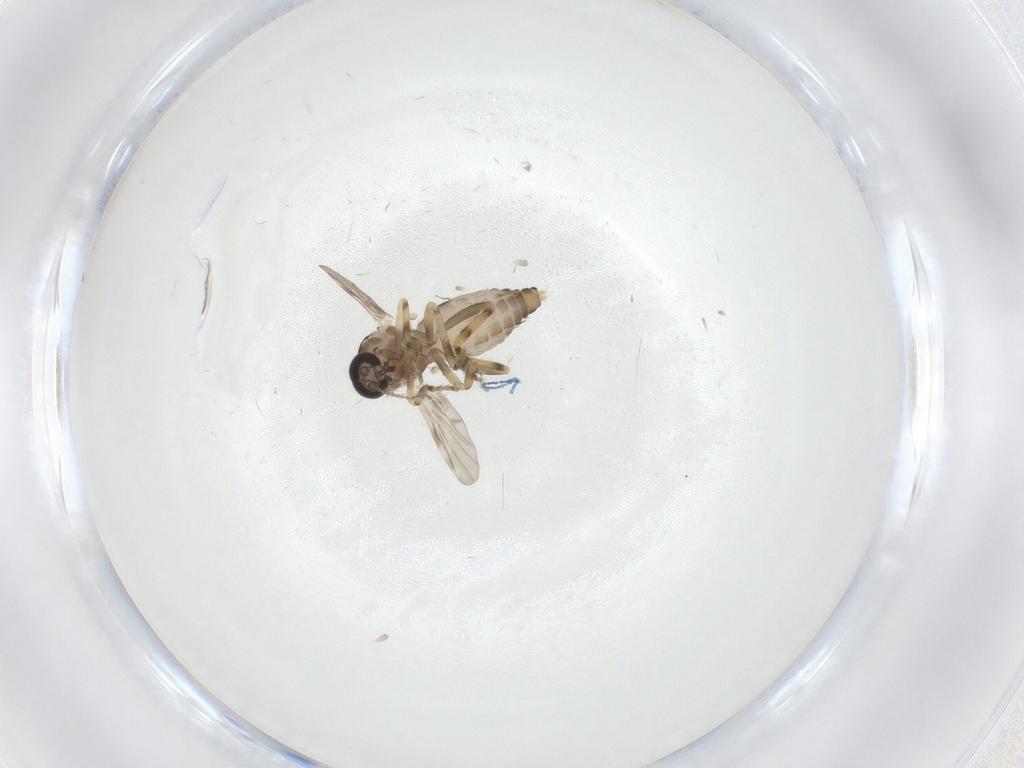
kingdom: Animalia
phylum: Arthropoda
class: Insecta
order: Diptera
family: Ceratopogonidae
